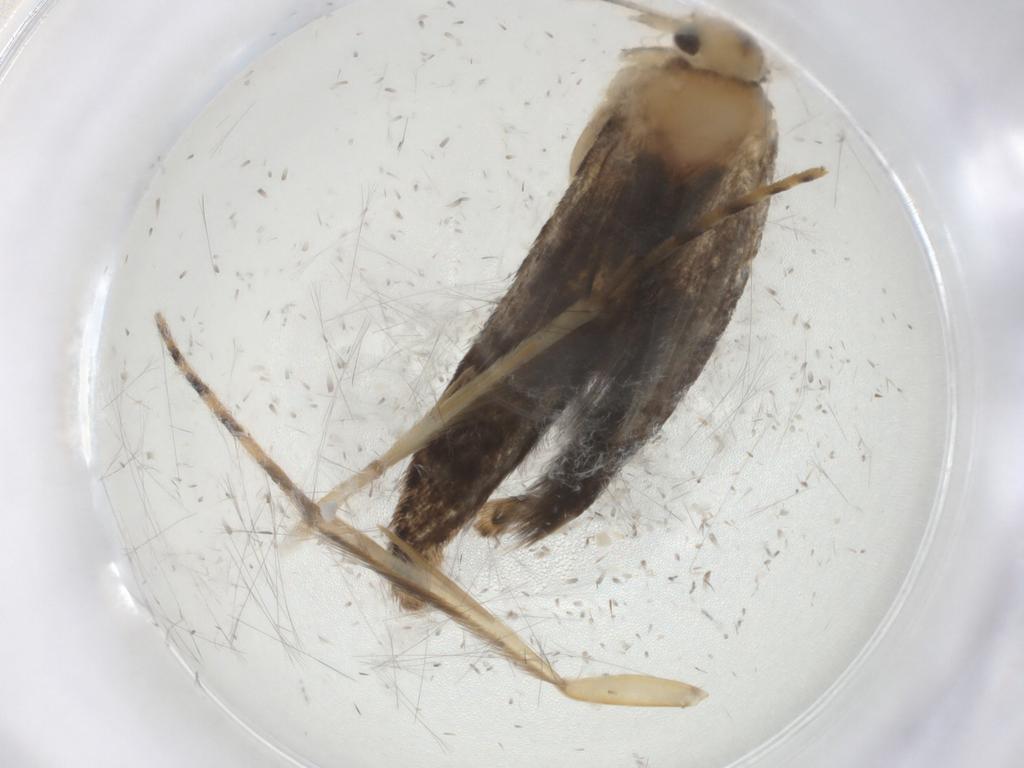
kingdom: Animalia
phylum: Arthropoda
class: Insecta
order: Lepidoptera
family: Elachistidae
